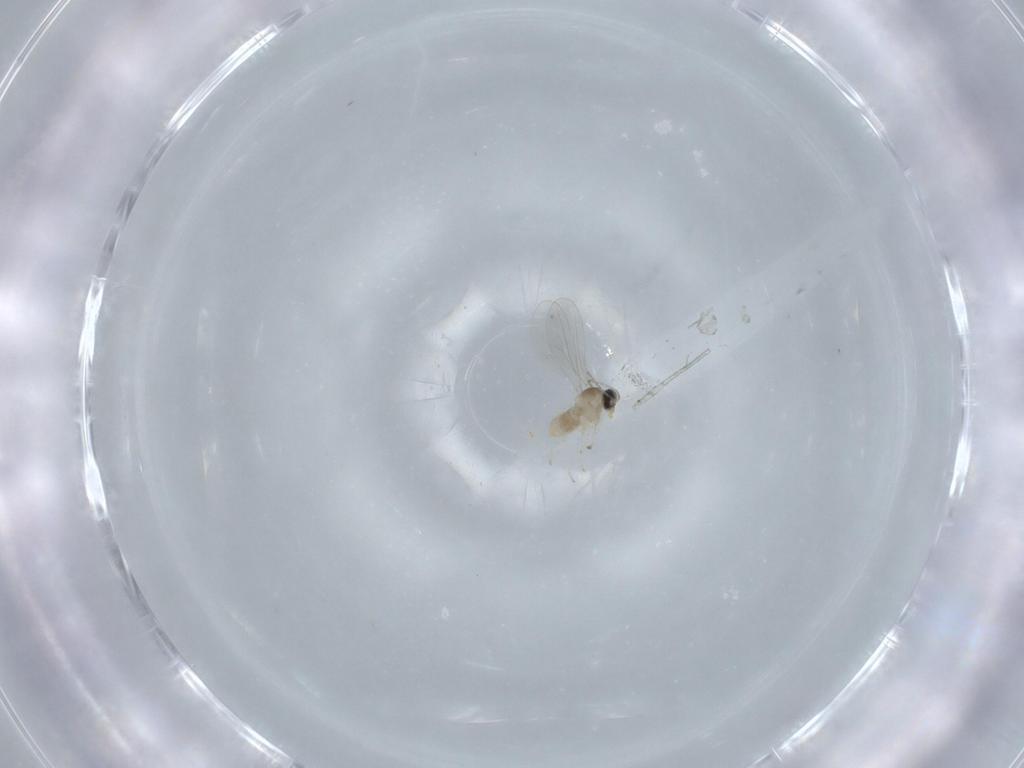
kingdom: Animalia
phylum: Arthropoda
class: Insecta
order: Diptera
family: Cecidomyiidae
